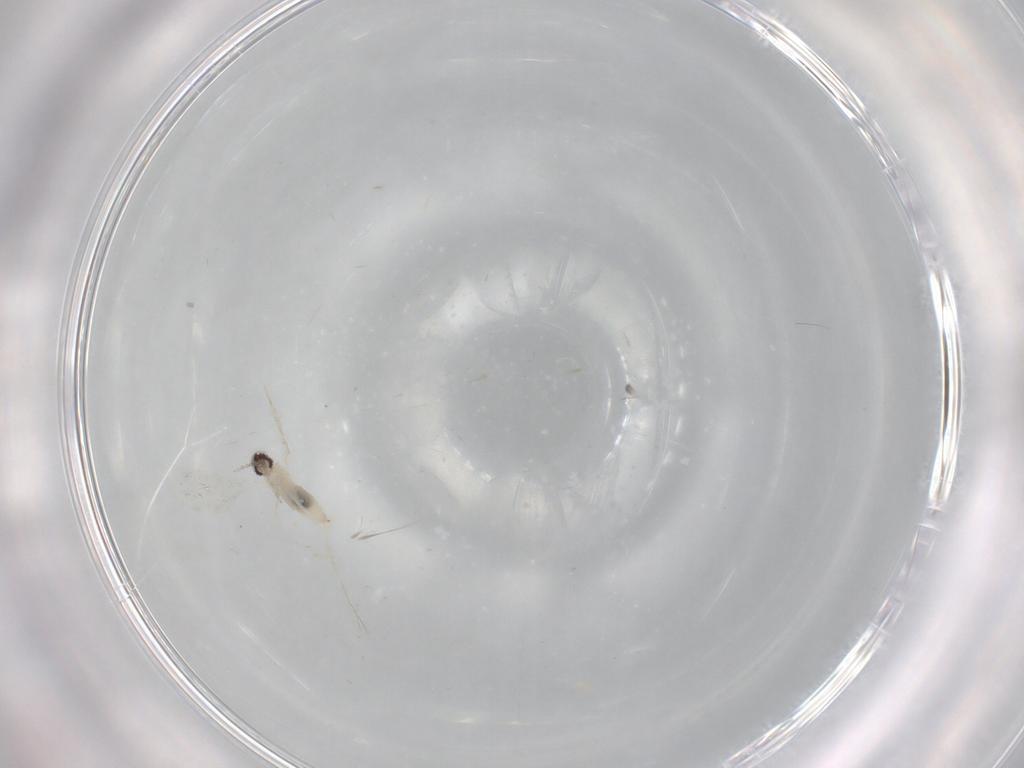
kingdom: Animalia
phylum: Arthropoda
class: Insecta
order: Diptera
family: Cecidomyiidae
